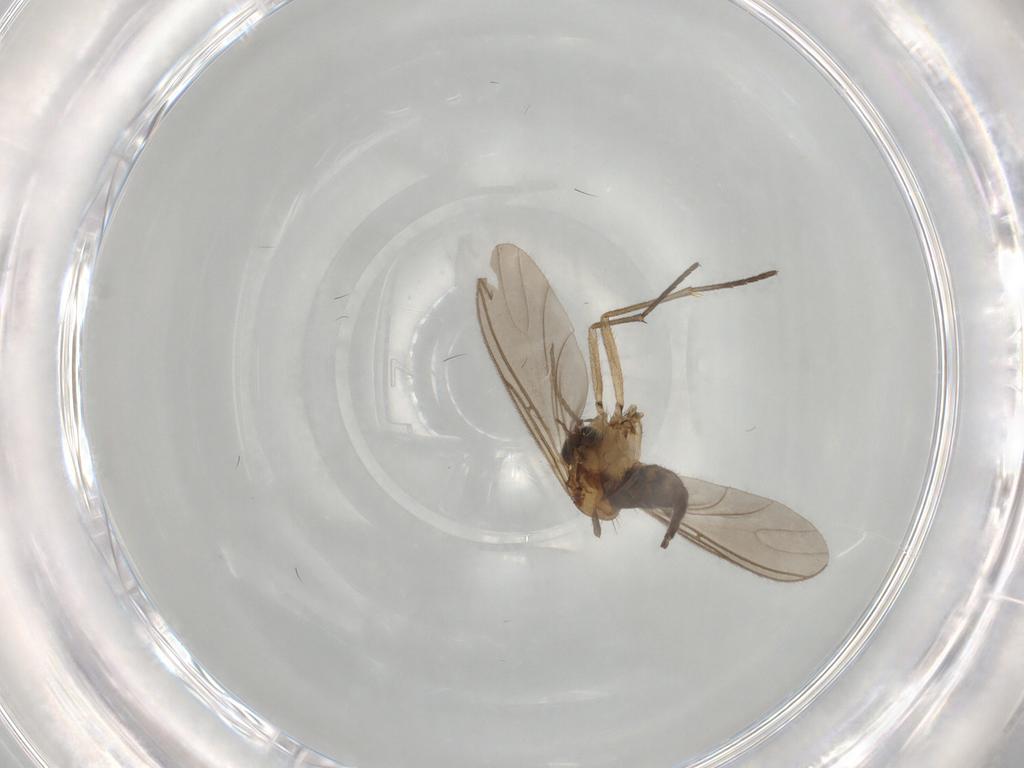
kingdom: Animalia
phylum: Arthropoda
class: Insecta
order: Diptera
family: Sciaridae
